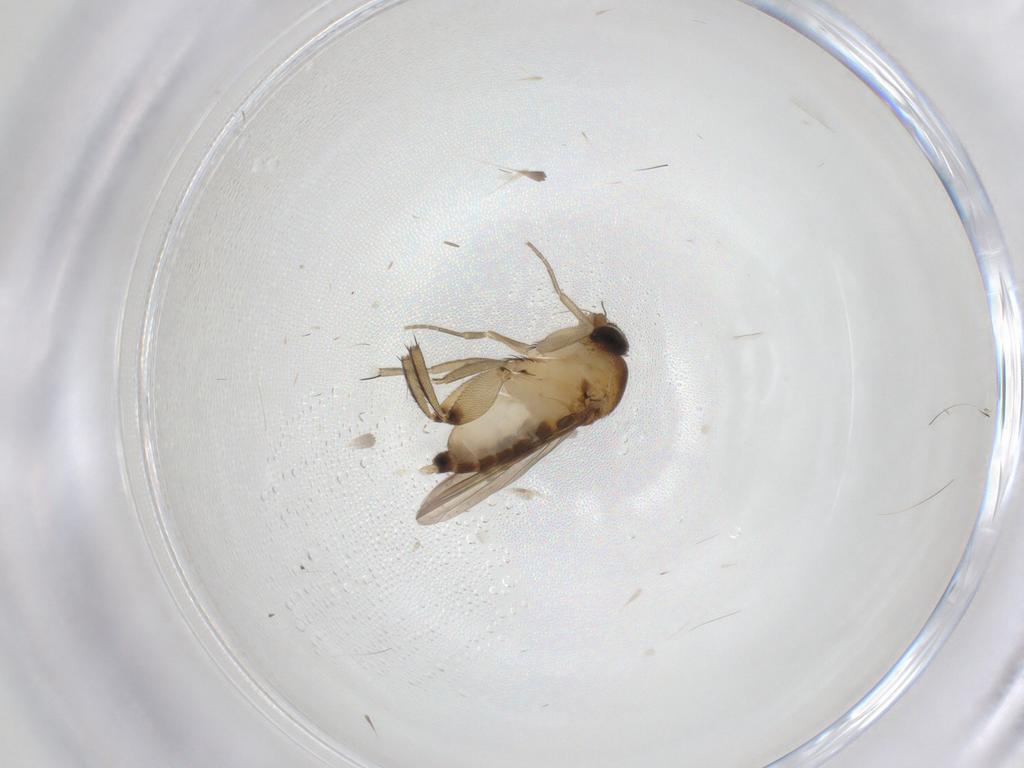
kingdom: Animalia
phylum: Arthropoda
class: Insecta
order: Diptera
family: Phoridae
